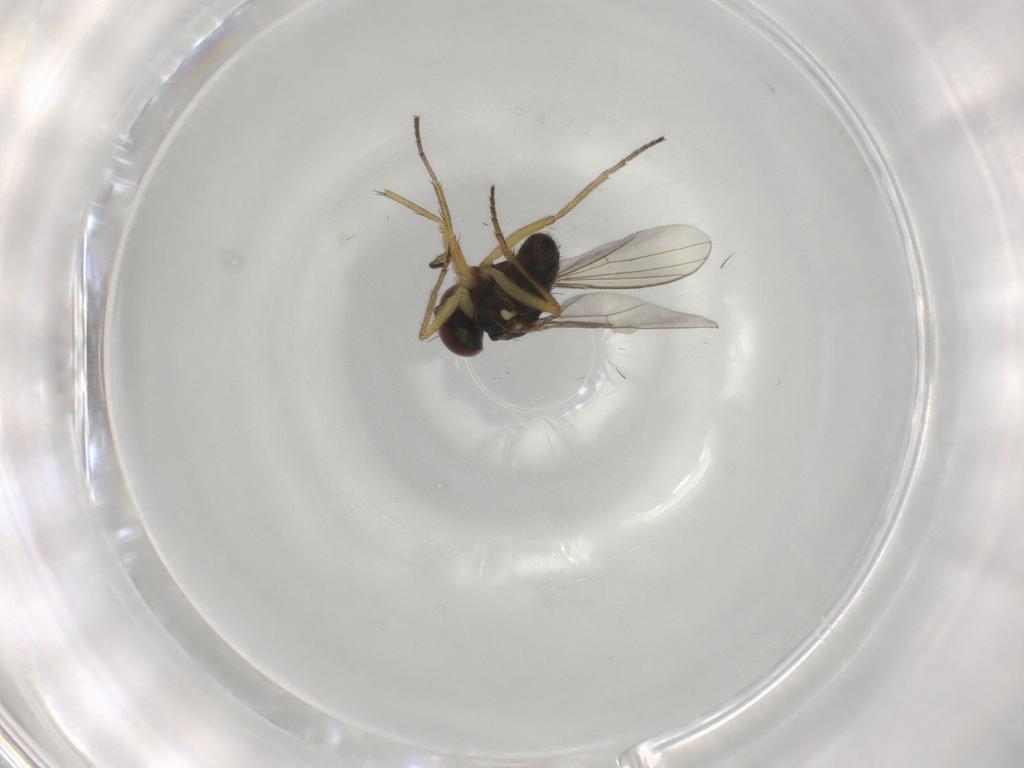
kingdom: Animalia
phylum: Arthropoda
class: Insecta
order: Diptera
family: Dolichopodidae
